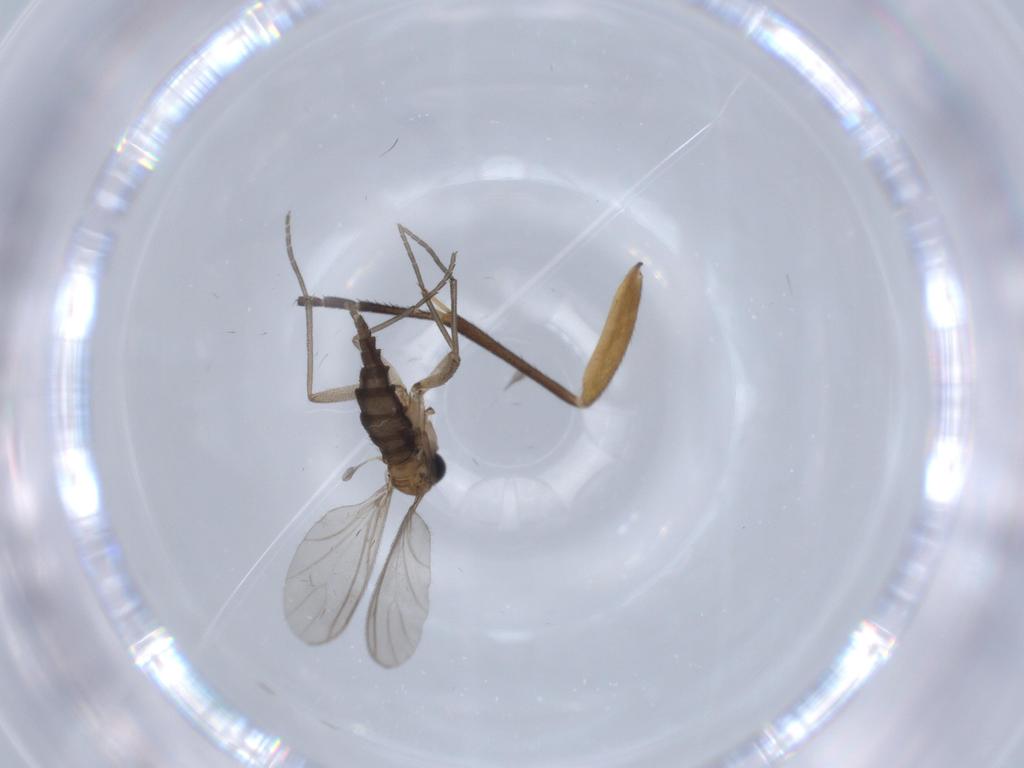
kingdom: Animalia
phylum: Arthropoda
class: Insecta
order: Diptera
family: Sciaridae
